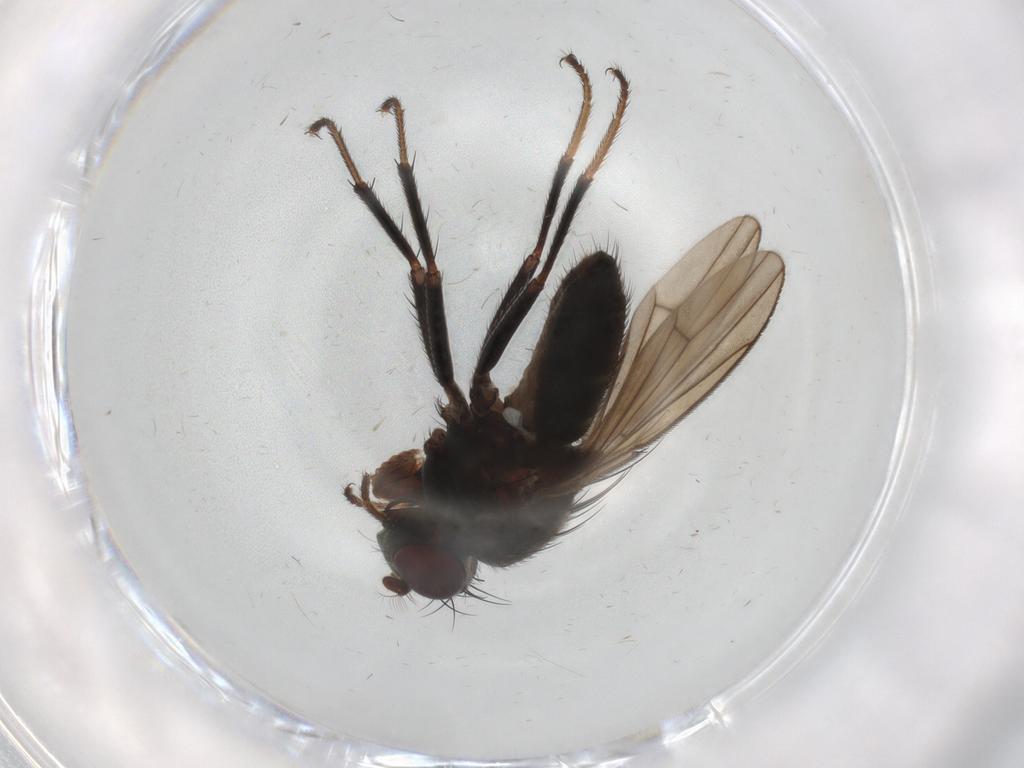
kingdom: Animalia
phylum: Arthropoda
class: Insecta
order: Diptera
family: Ephydridae
